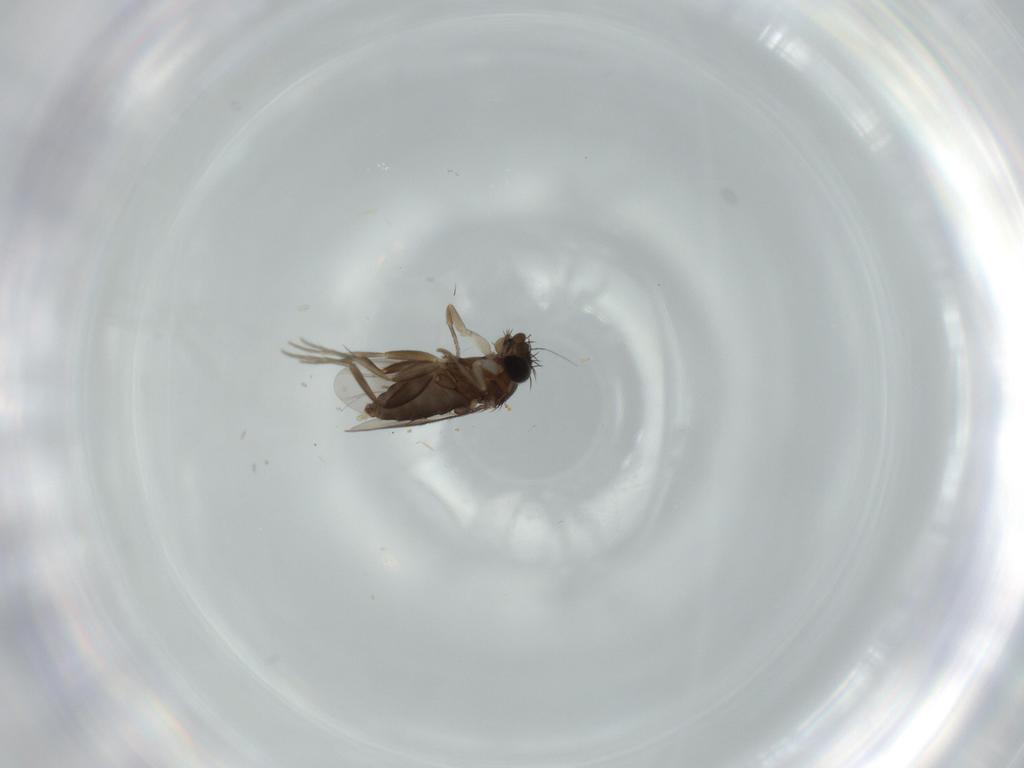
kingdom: Animalia
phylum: Arthropoda
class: Insecta
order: Diptera
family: Phoridae
